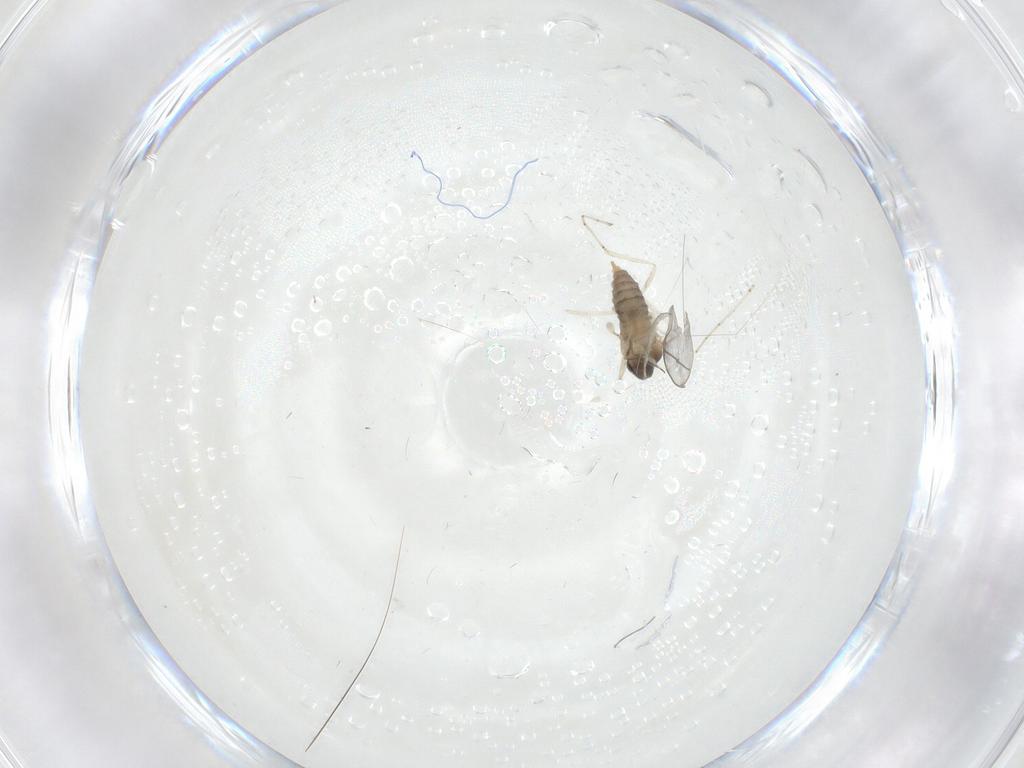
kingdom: Animalia
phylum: Arthropoda
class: Insecta
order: Diptera
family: Cecidomyiidae
